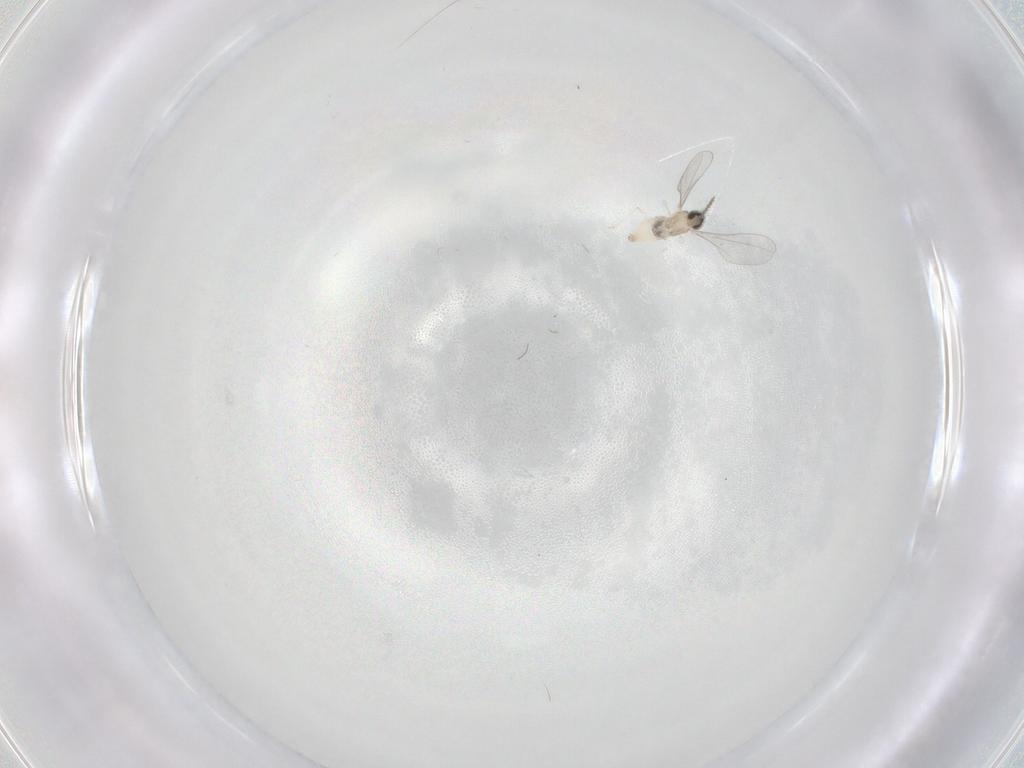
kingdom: Animalia
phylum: Arthropoda
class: Insecta
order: Diptera
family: Cecidomyiidae
